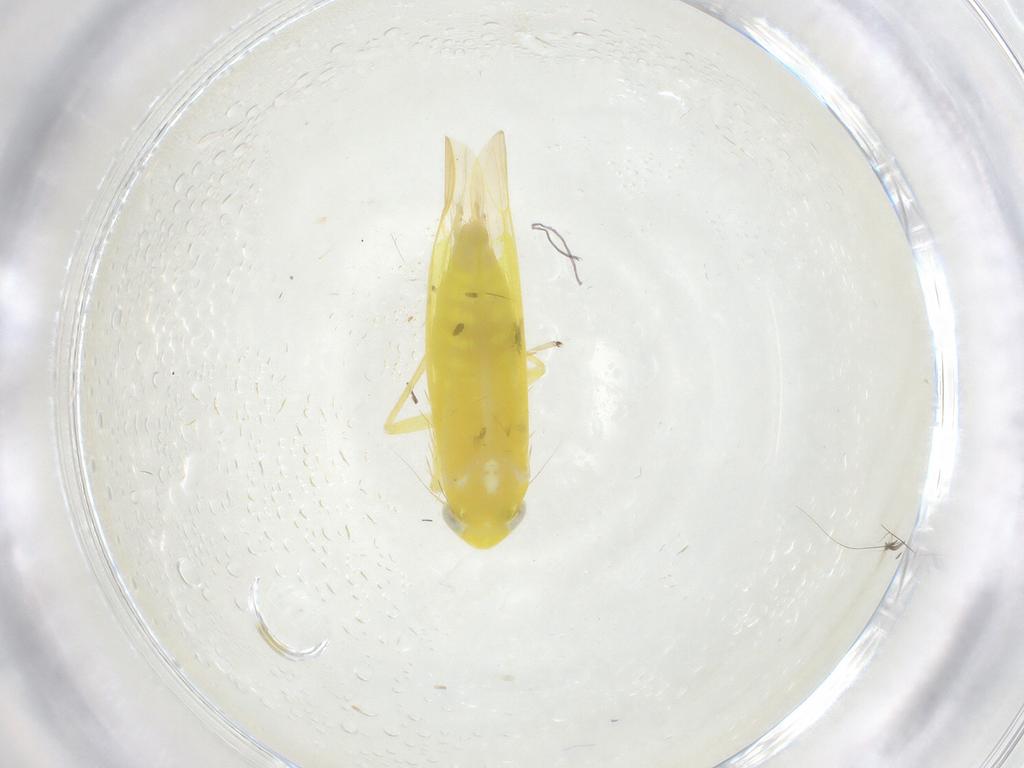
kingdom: Animalia
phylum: Arthropoda
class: Insecta
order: Hemiptera
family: Cicadellidae
